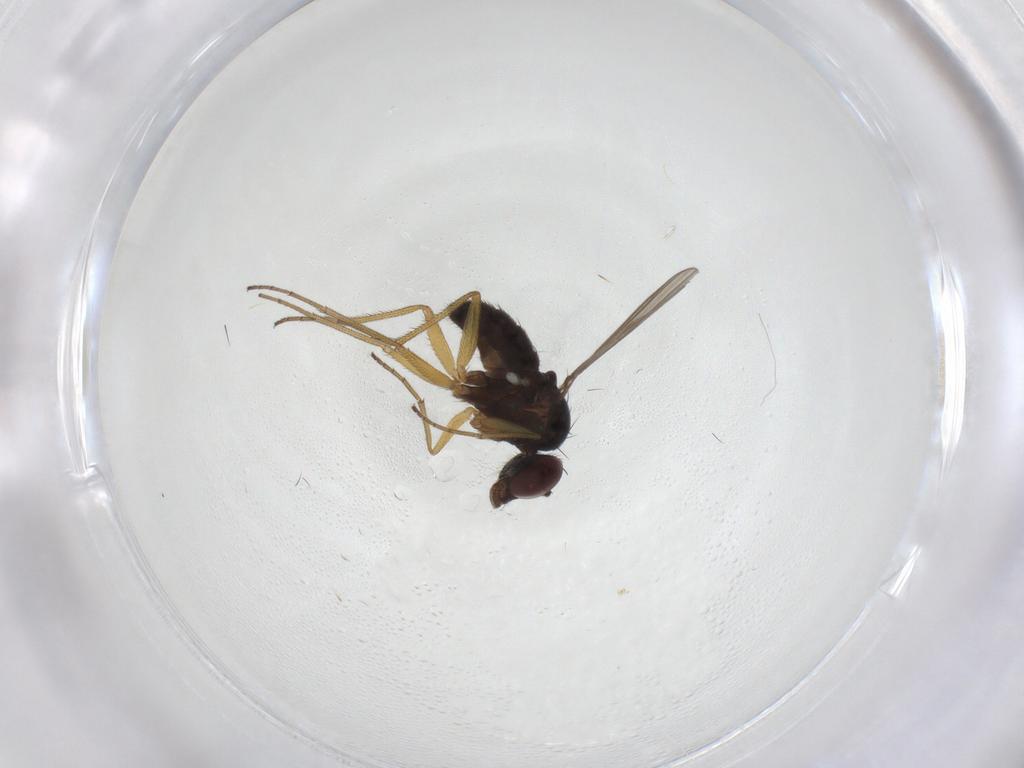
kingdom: Animalia
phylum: Arthropoda
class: Insecta
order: Diptera
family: Dolichopodidae
